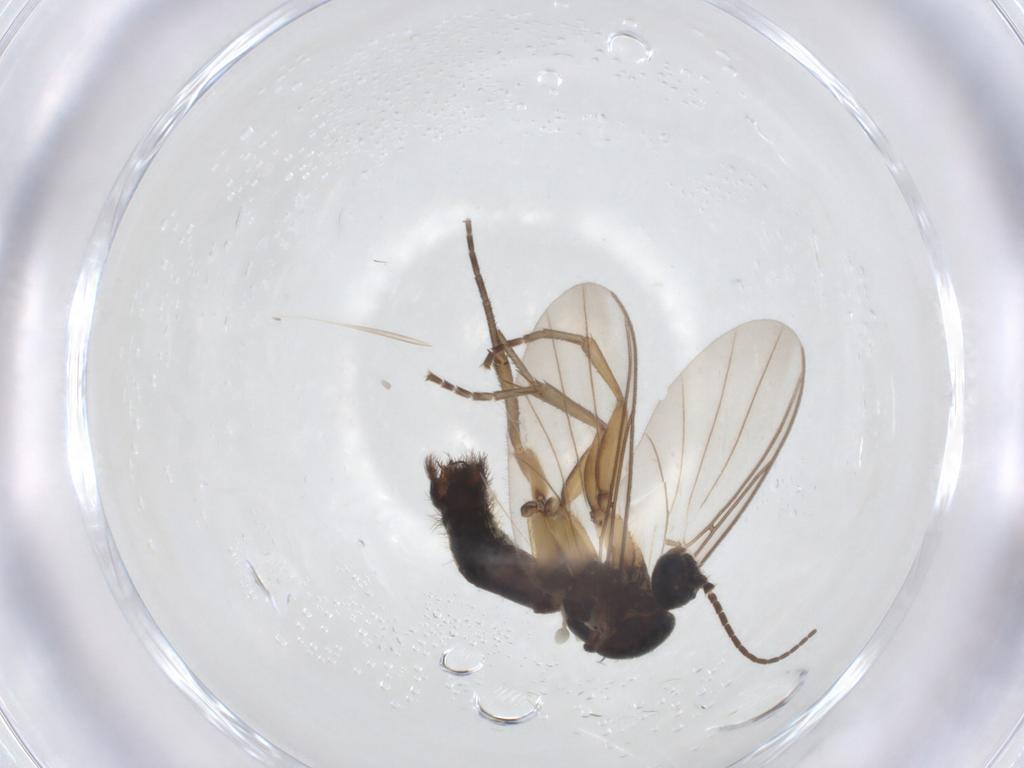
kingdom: Animalia
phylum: Arthropoda
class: Insecta
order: Diptera
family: Mycetophilidae
